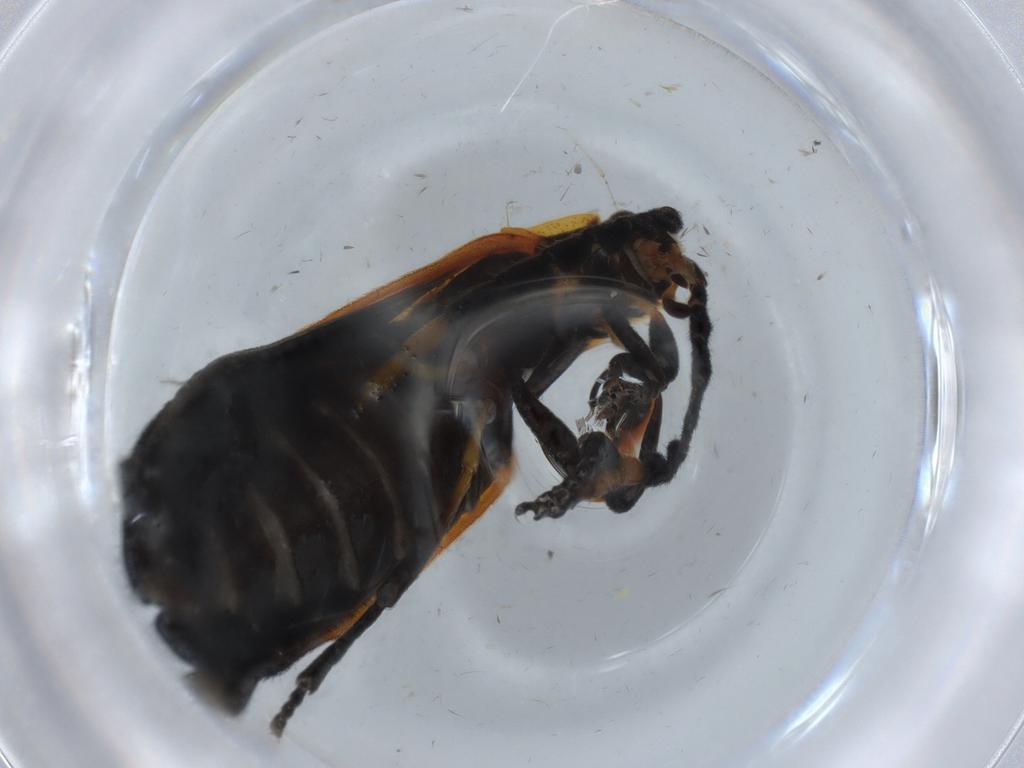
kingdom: Animalia
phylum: Arthropoda
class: Insecta
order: Coleoptera
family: Lycidae
